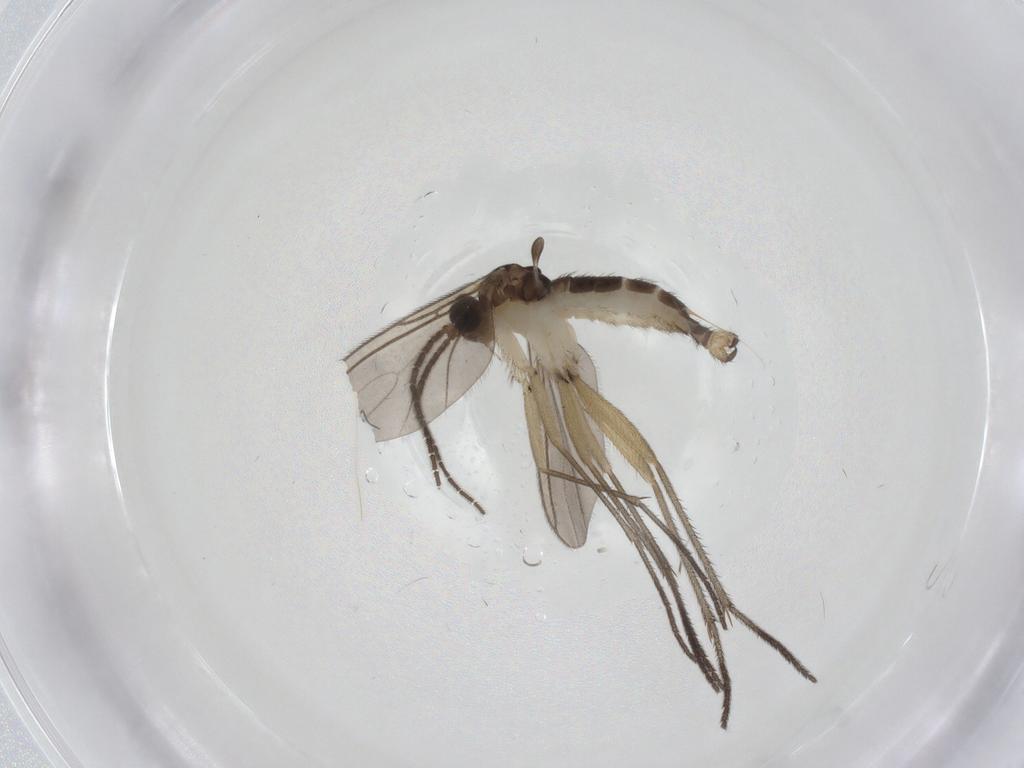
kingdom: Animalia
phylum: Arthropoda
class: Insecta
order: Diptera
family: Sciaridae
